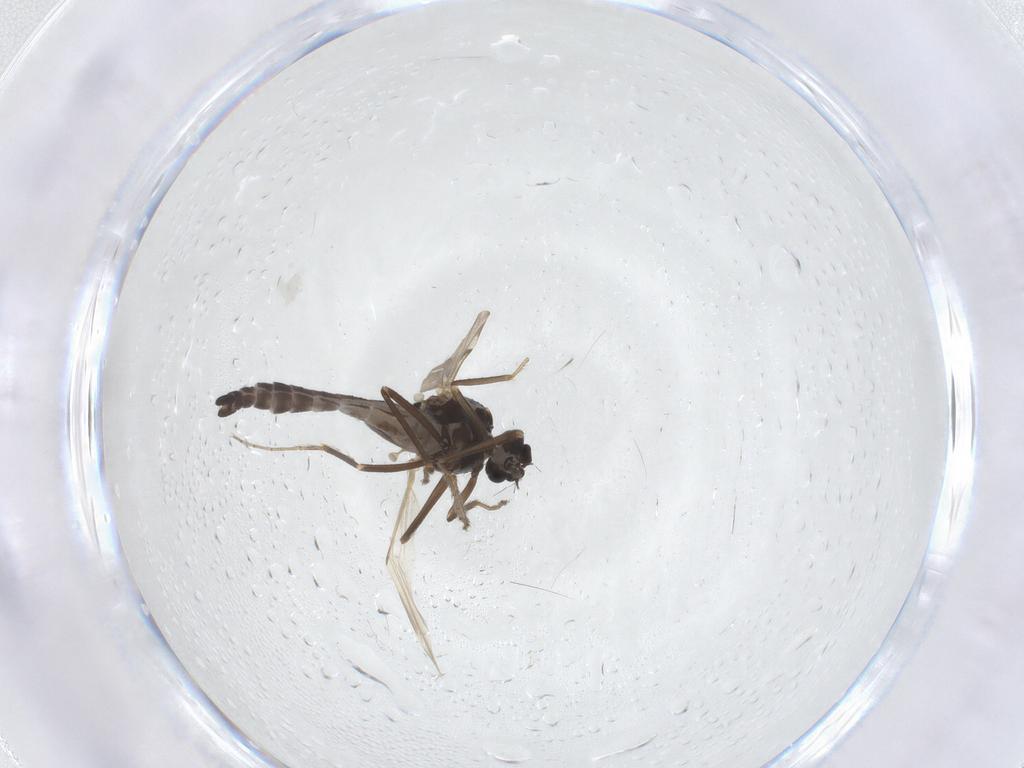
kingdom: Animalia
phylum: Arthropoda
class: Insecta
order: Diptera
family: Ceratopogonidae
